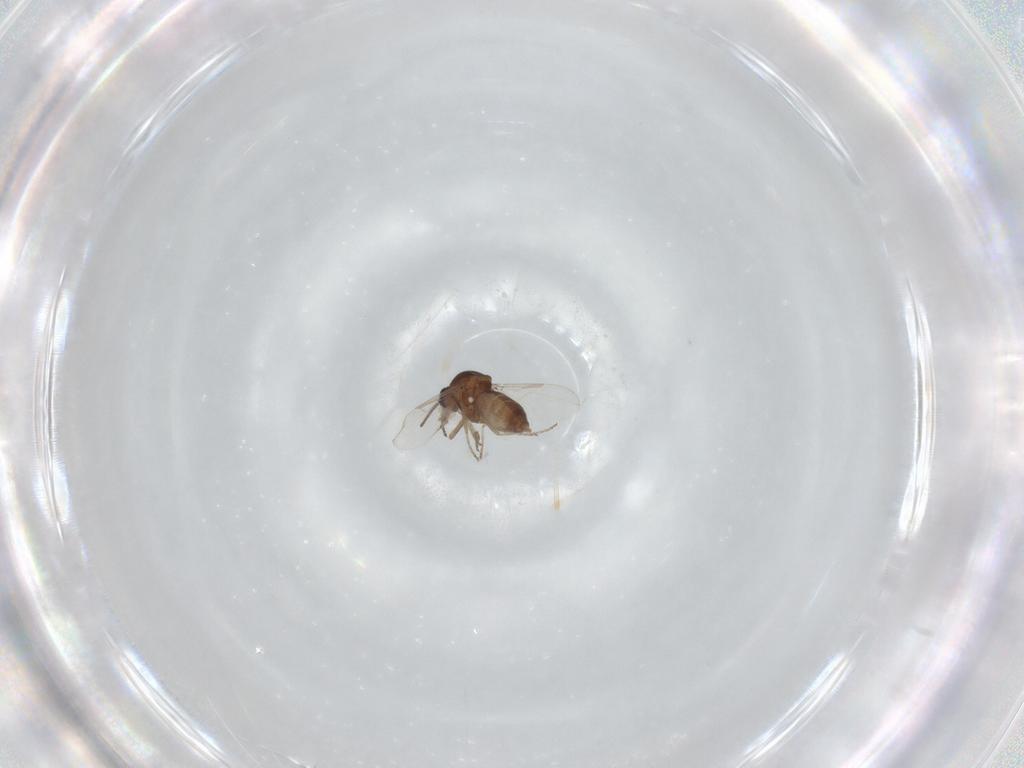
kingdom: Animalia
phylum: Arthropoda
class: Insecta
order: Diptera
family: Ceratopogonidae
